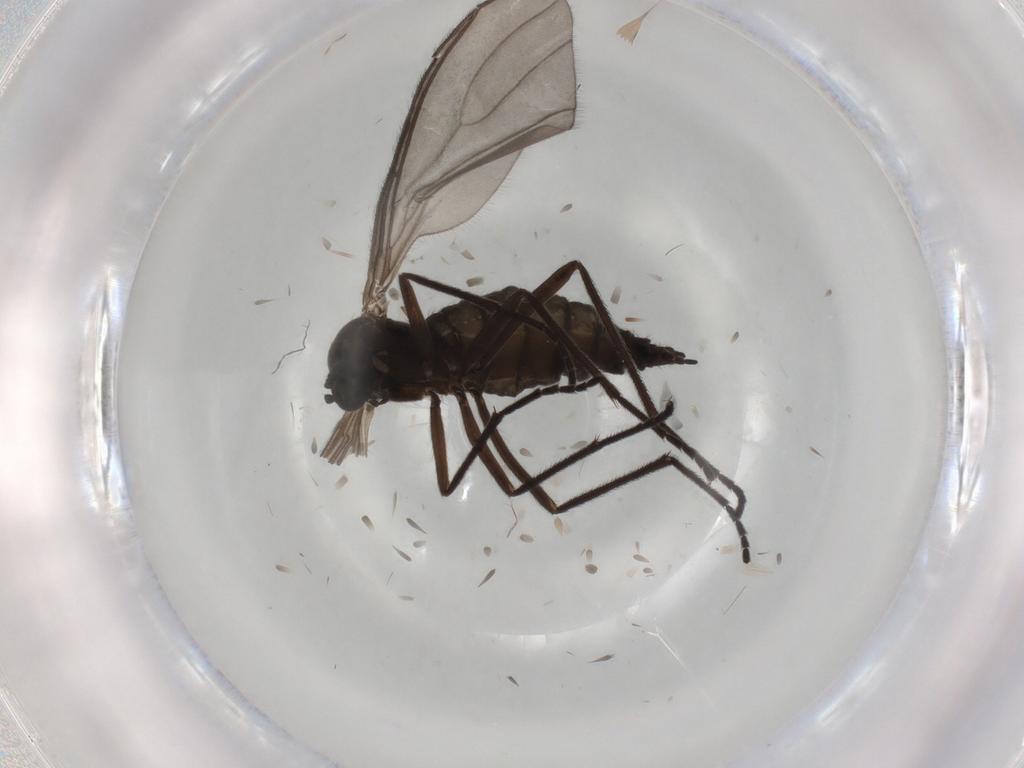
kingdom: Animalia
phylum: Arthropoda
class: Insecta
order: Diptera
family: Sciaridae
